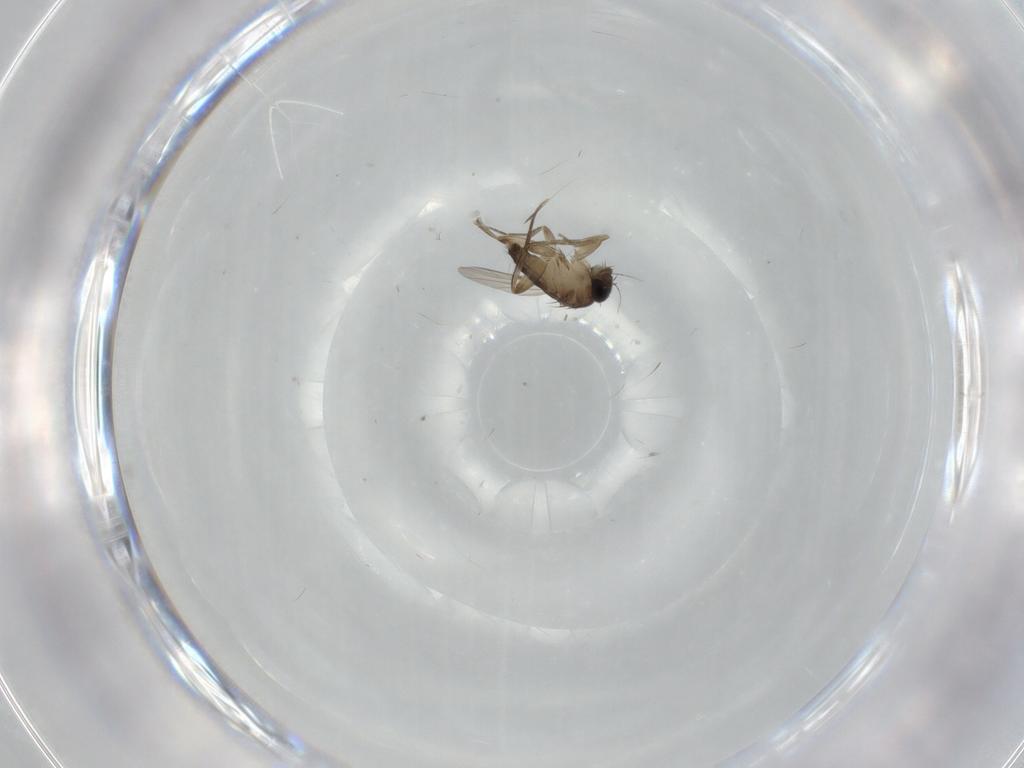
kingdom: Animalia
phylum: Arthropoda
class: Insecta
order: Diptera
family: Phoridae
